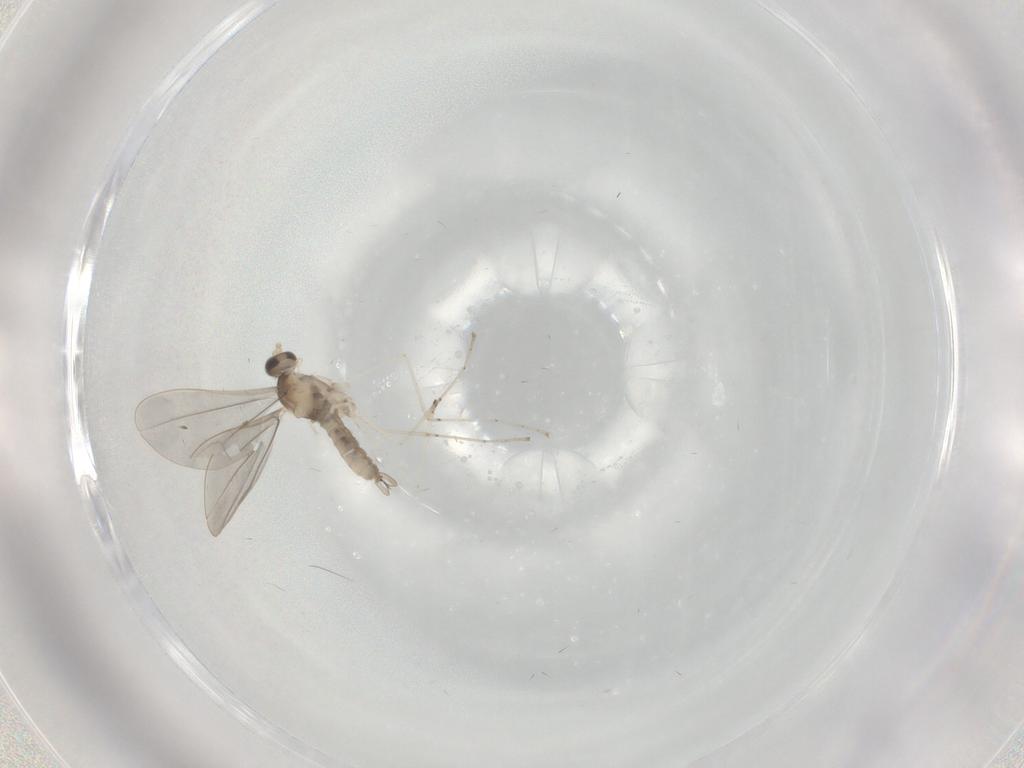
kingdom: Animalia
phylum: Arthropoda
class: Insecta
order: Diptera
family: Cecidomyiidae
